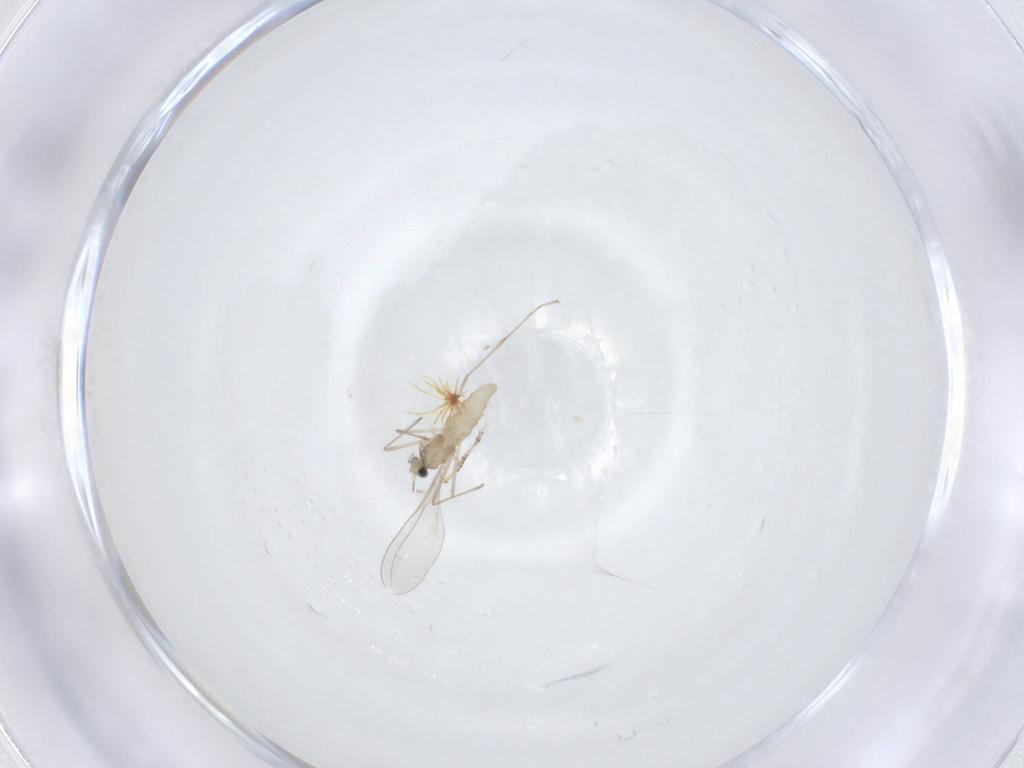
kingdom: Animalia
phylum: Arthropoda
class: Insecta
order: Diptera
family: Cecidomyiidae
